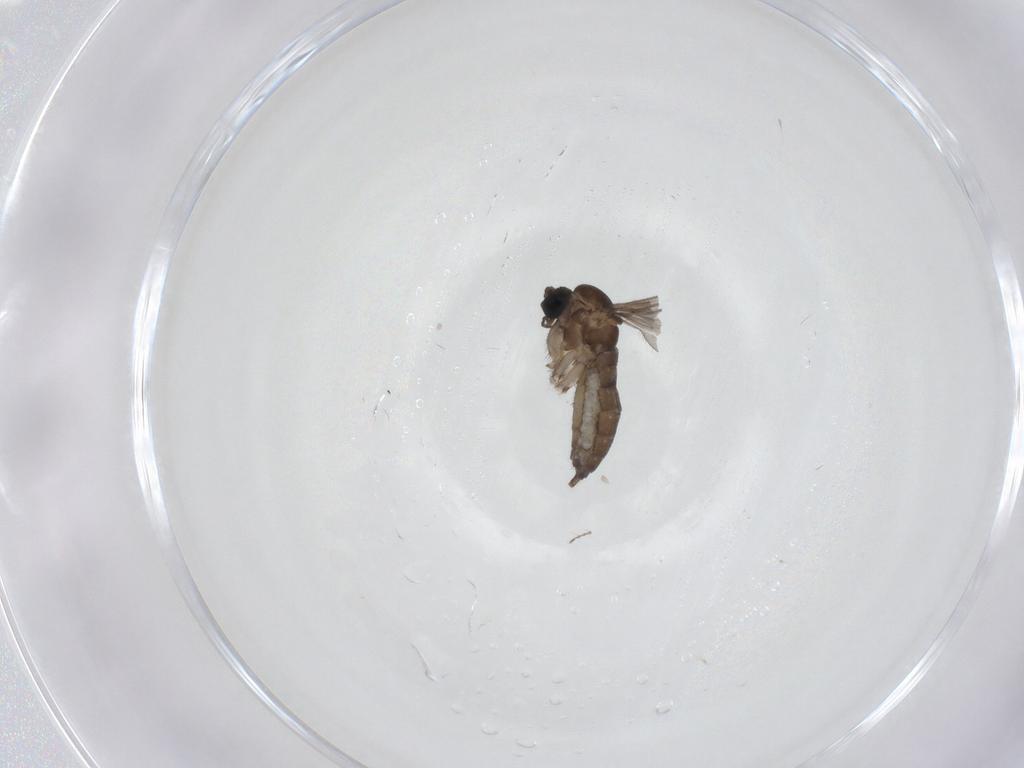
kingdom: Animalia
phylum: Arthropoda
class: Insecta
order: Diptera
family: Sciaridae
